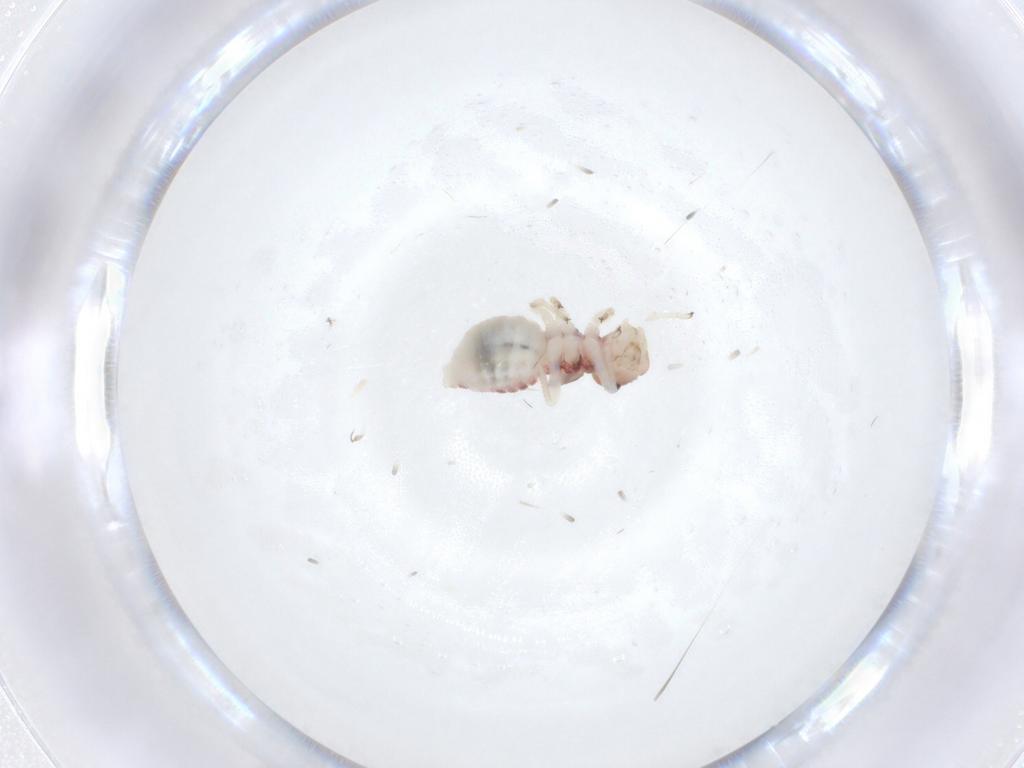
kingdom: Animalia
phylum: Arthropoda
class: Insecta
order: Psocodea
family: Amphipsocidae
